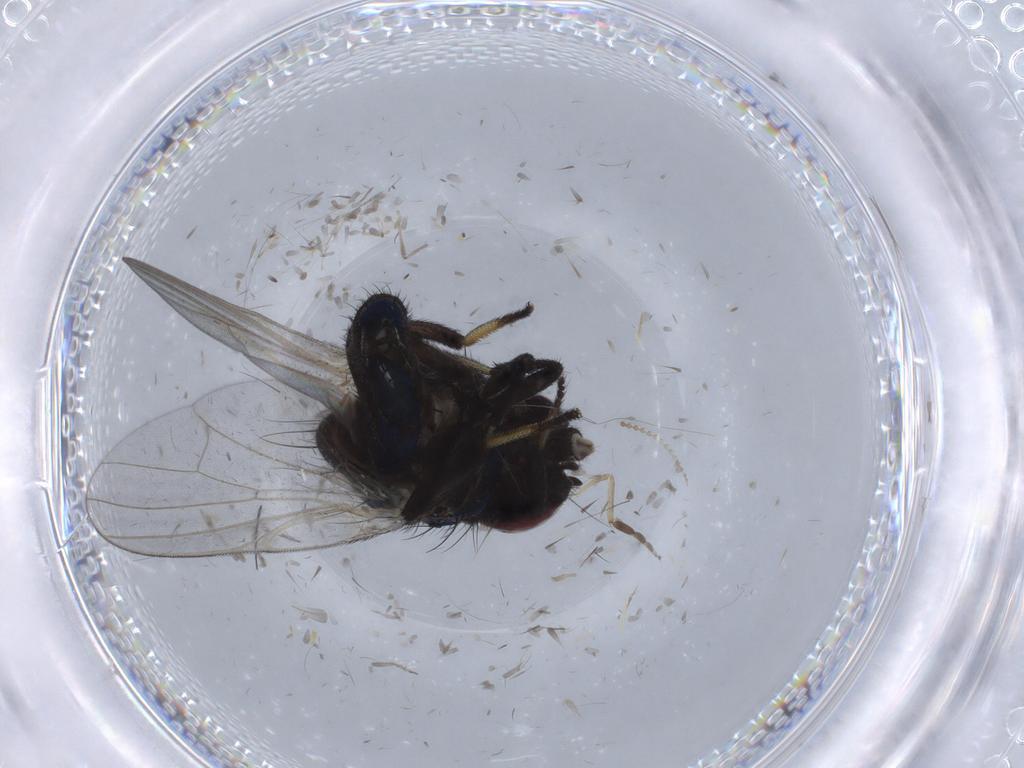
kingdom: Animalia
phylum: Arthropoda
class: Insecta
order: Diptera
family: Lonchaeidae
